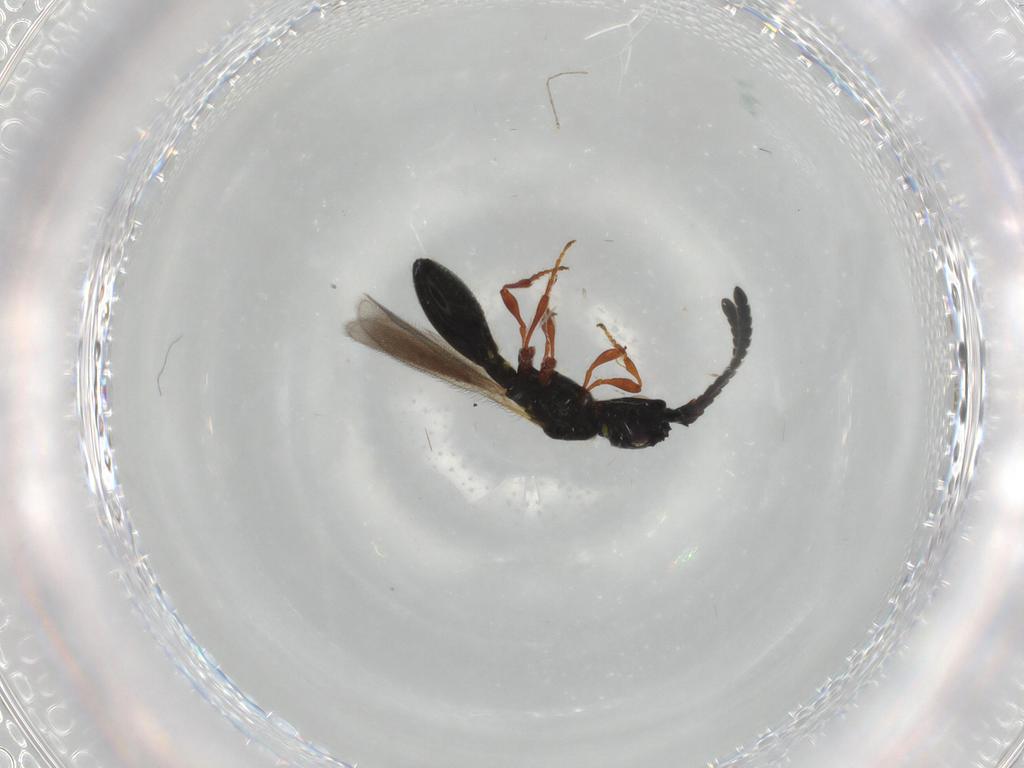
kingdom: Animalia
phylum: Arthropoda
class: Insecta
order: Hymenoptera
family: Diapriidae
